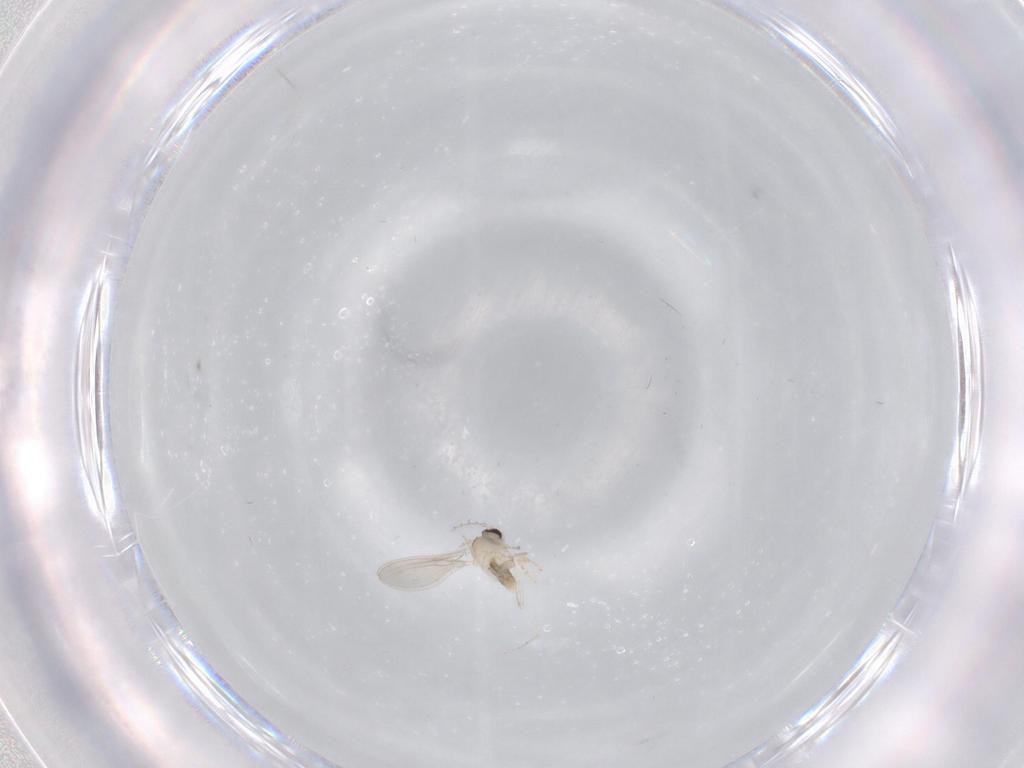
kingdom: Animalia
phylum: Arthropoda
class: Insecta
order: Diptera
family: Cecidomyiidae
